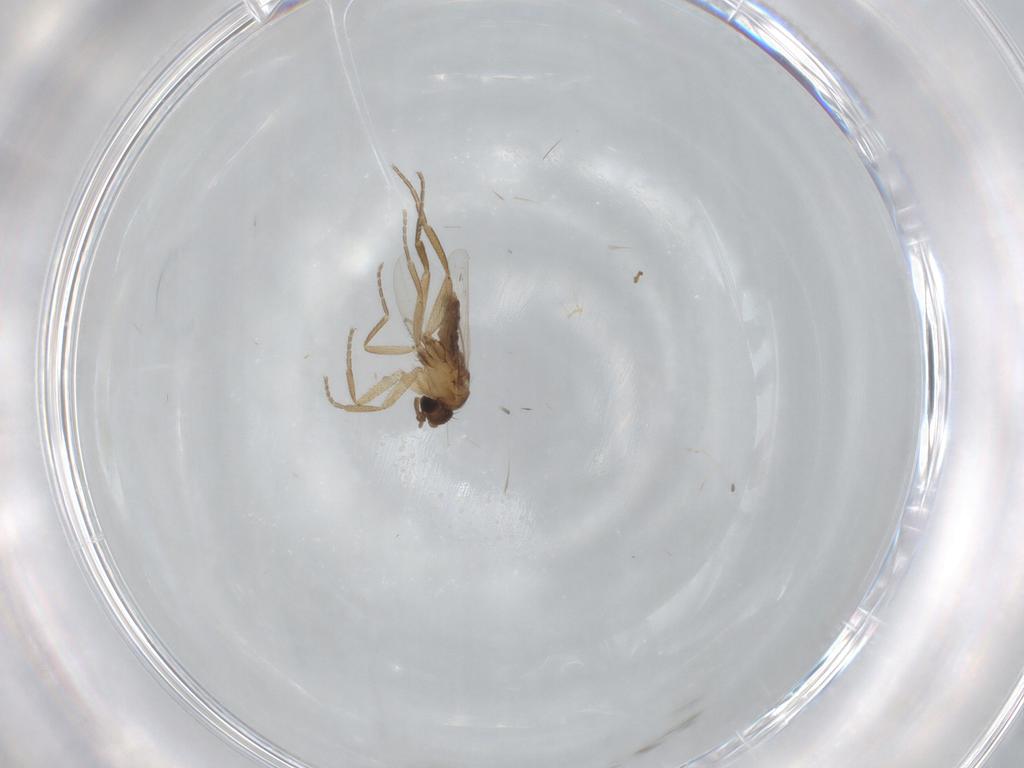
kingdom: Animalia
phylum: Arthropoda
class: Insecta
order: Diptera
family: Phoridae
